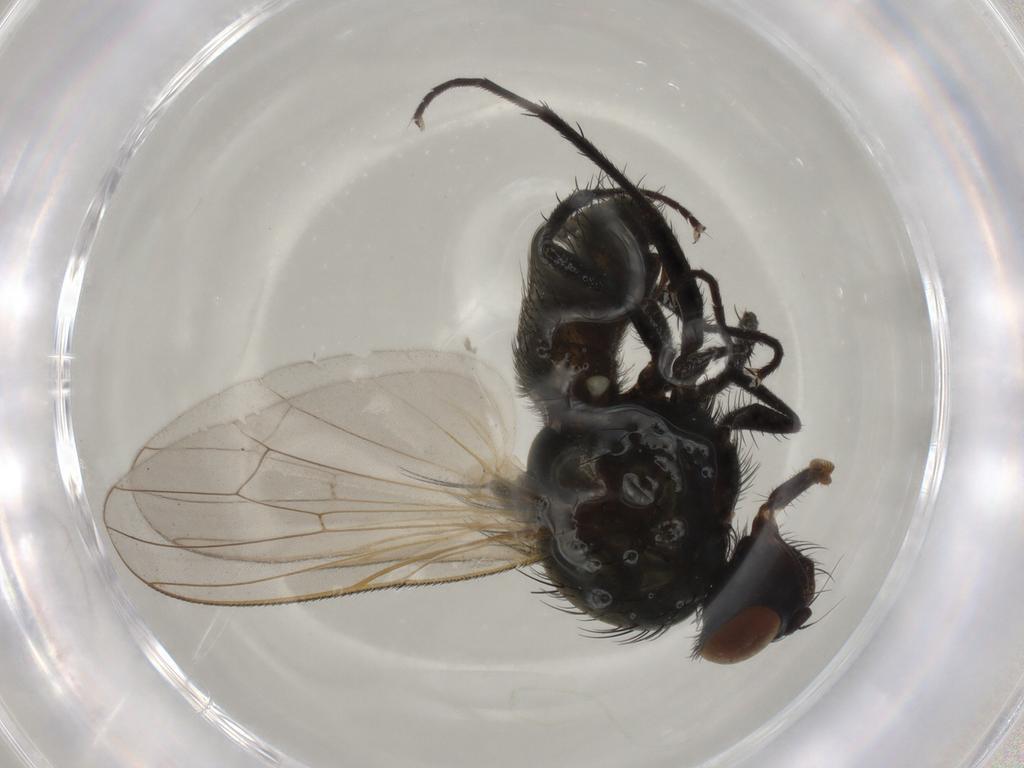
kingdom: Animalia
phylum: Arthropoda
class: Insecta
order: Diptera
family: Phoridae
